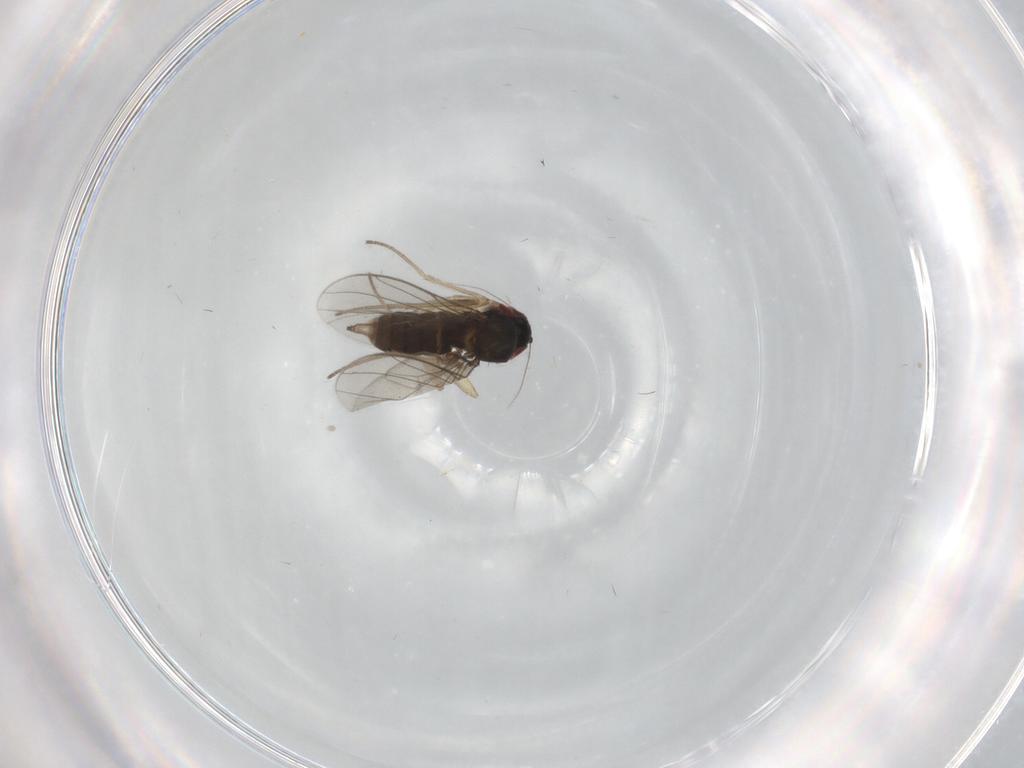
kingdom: Animalia
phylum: Arthropoda
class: Insecta
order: Diptera
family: Dolichopodidae
